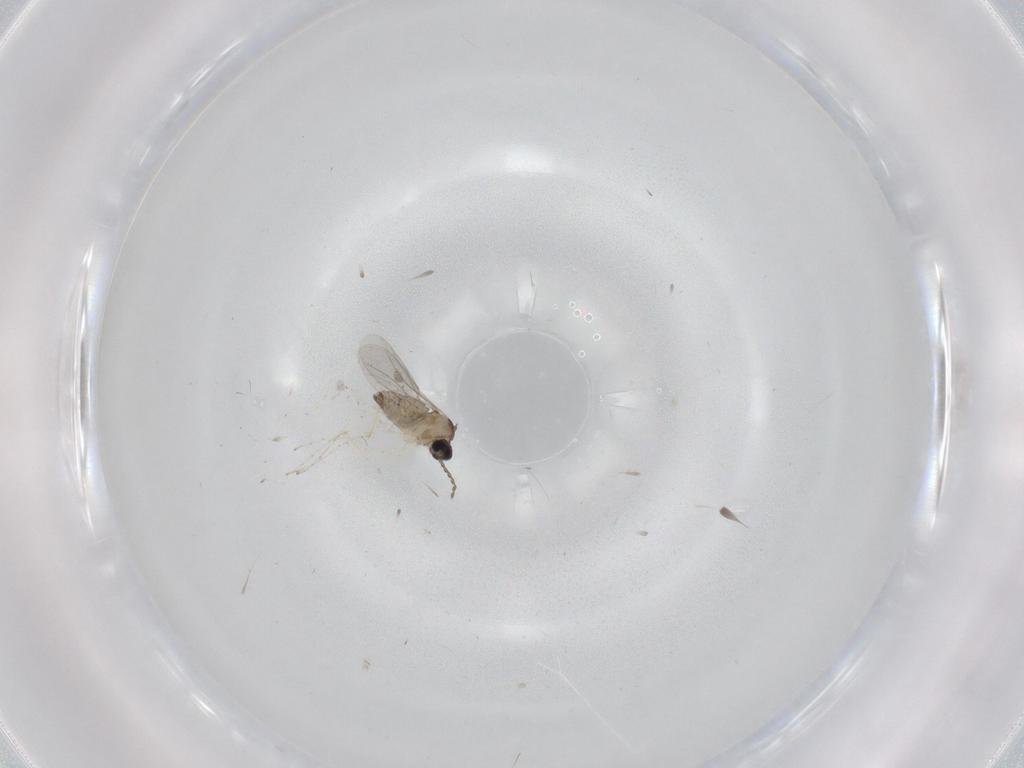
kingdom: Animalia
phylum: Arthropoda
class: Insecta
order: Diptera
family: Cecidomyiidae
